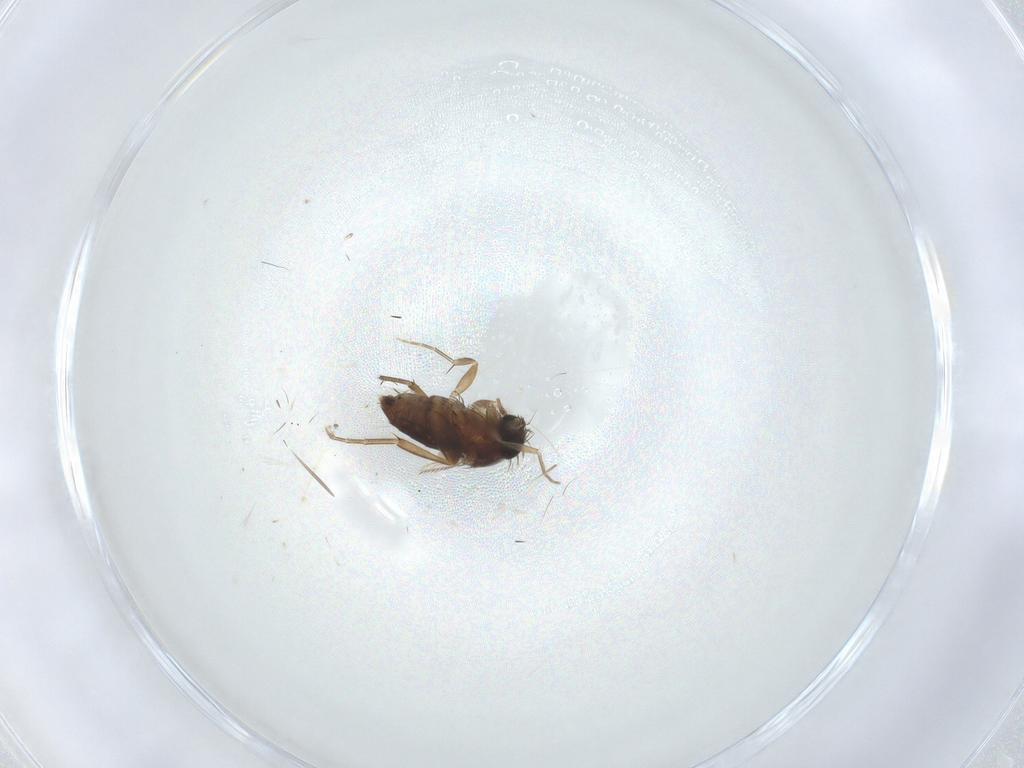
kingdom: Animalia
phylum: Arthropoda
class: Insecta
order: Diptera
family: Phoridae
